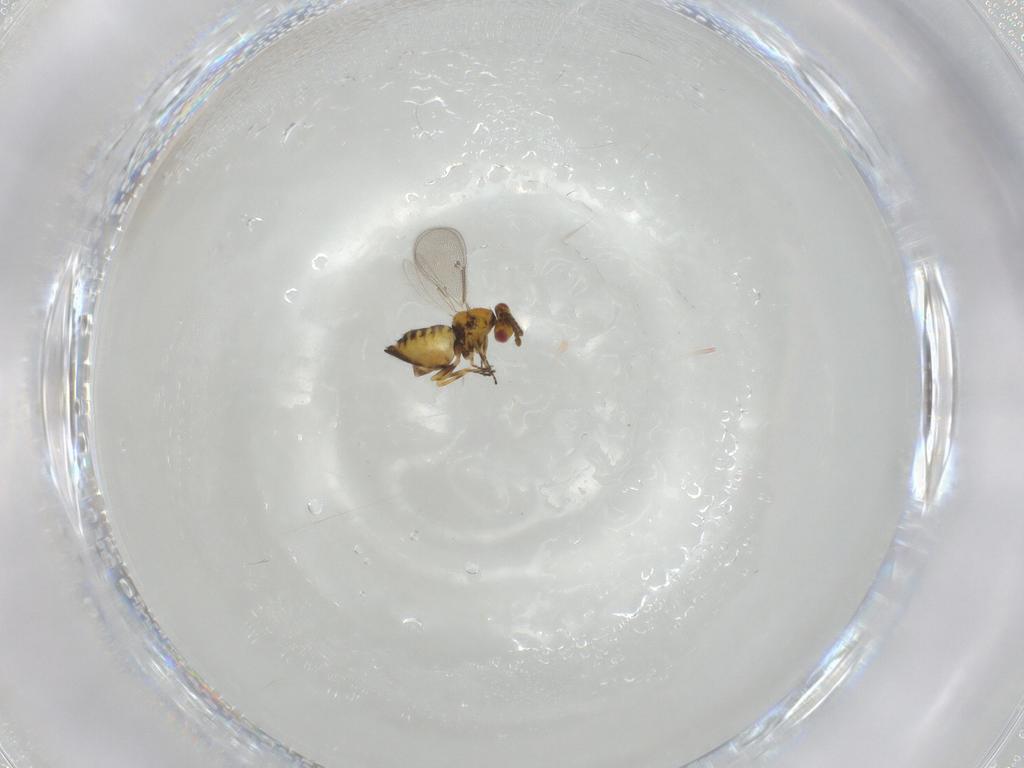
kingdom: Animalia
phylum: Arthropoda
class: Insecta
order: Hymenoptera
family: Eulophidae
